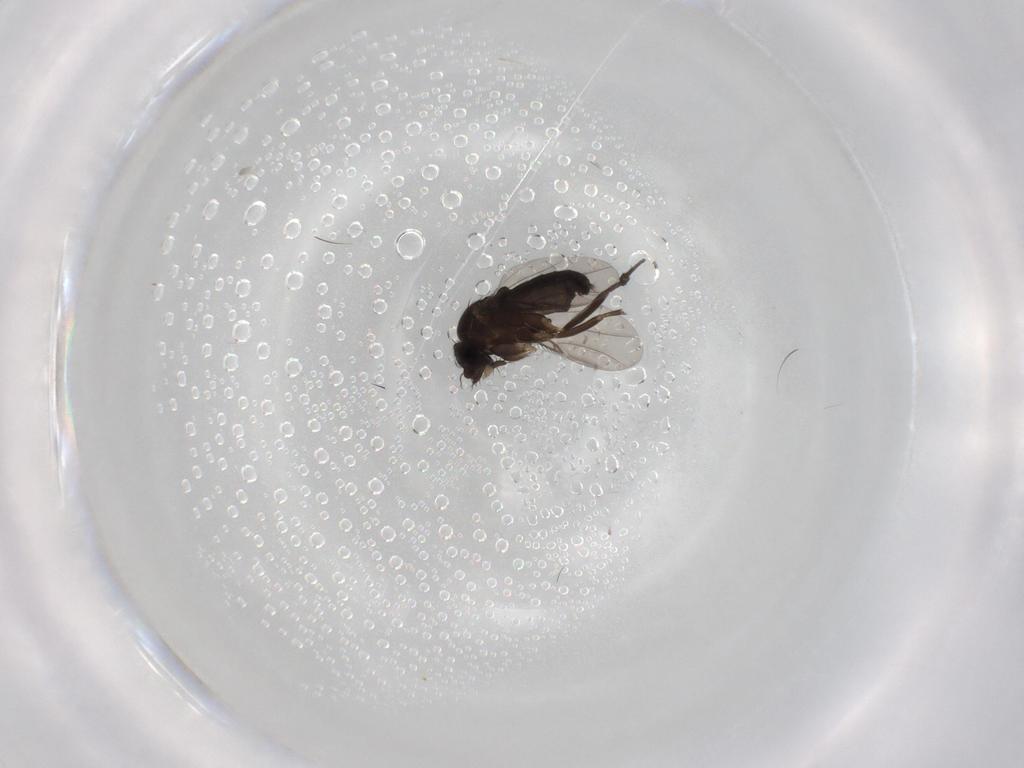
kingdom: Animalia
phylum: Arthropoda
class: Insecta
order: Diptera
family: Phoridae
